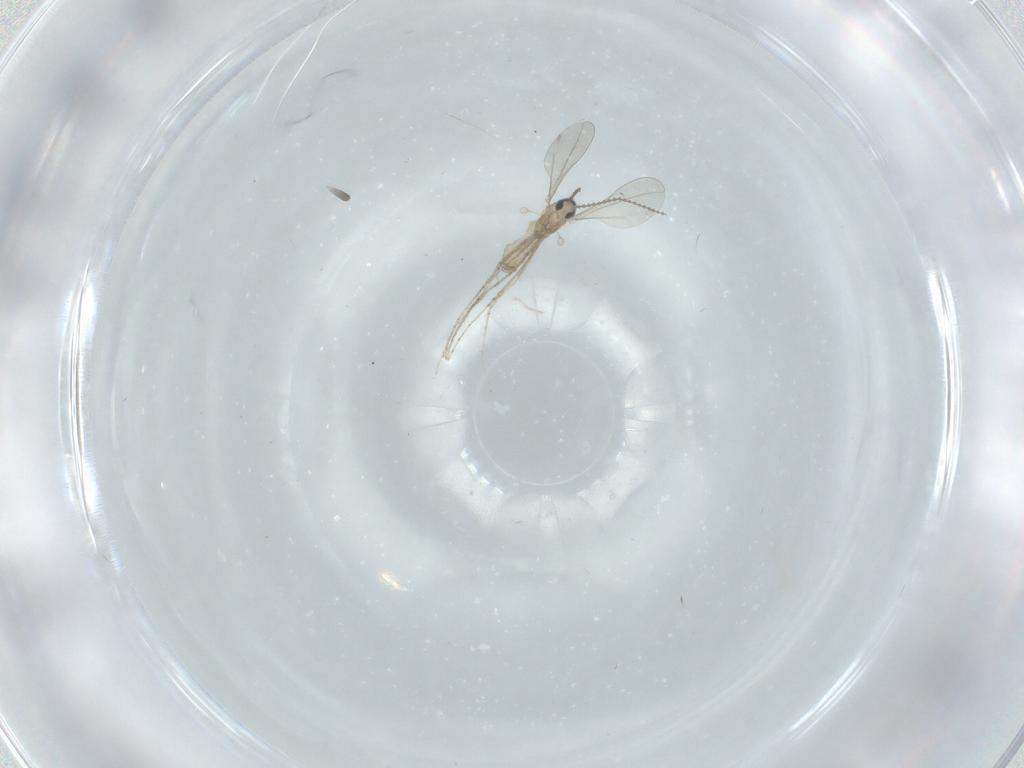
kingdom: Animalia
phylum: Arthropoda
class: Insecta
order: Diptera
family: Cecidomyiidae
